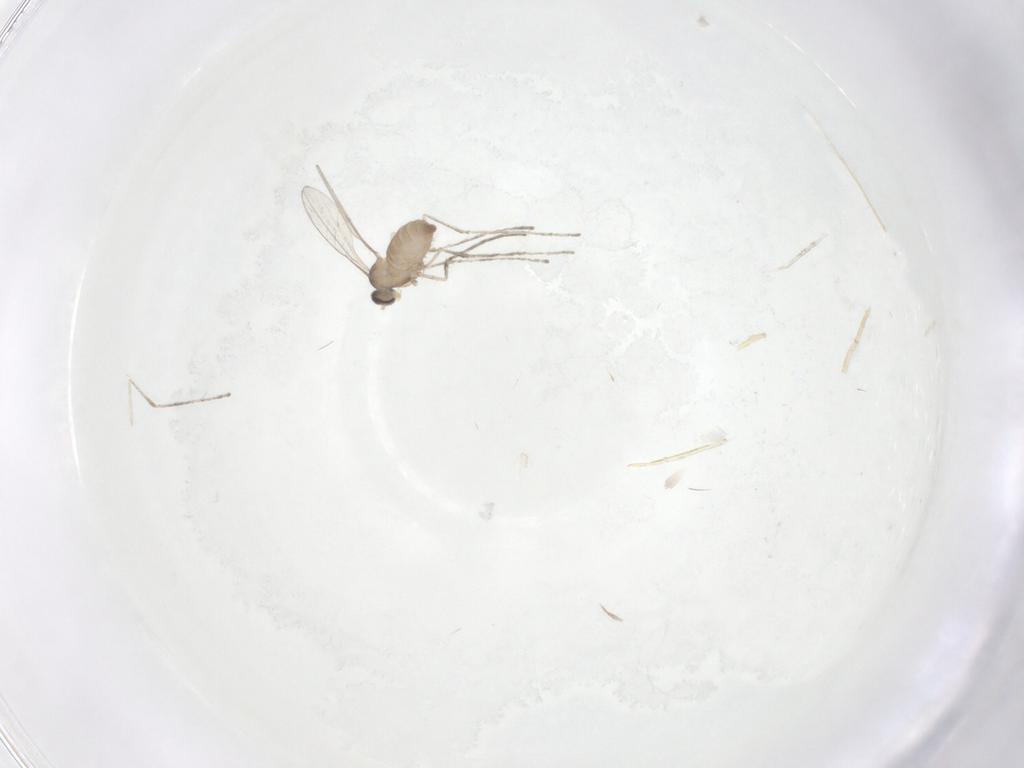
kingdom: Animalia
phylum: Arthropoda
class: Insecta
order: Diptera
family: Cecidomyiidae
